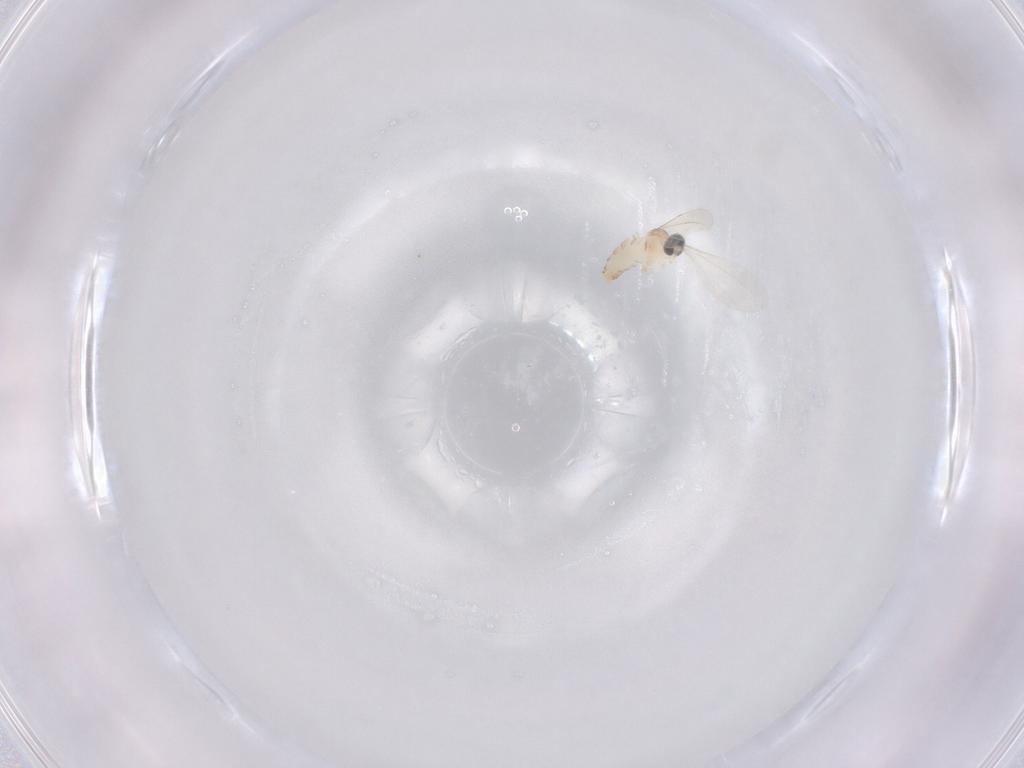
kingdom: Animalia
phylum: Arthropoda
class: Insecta
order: Diptera
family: Cecidomyiidae
